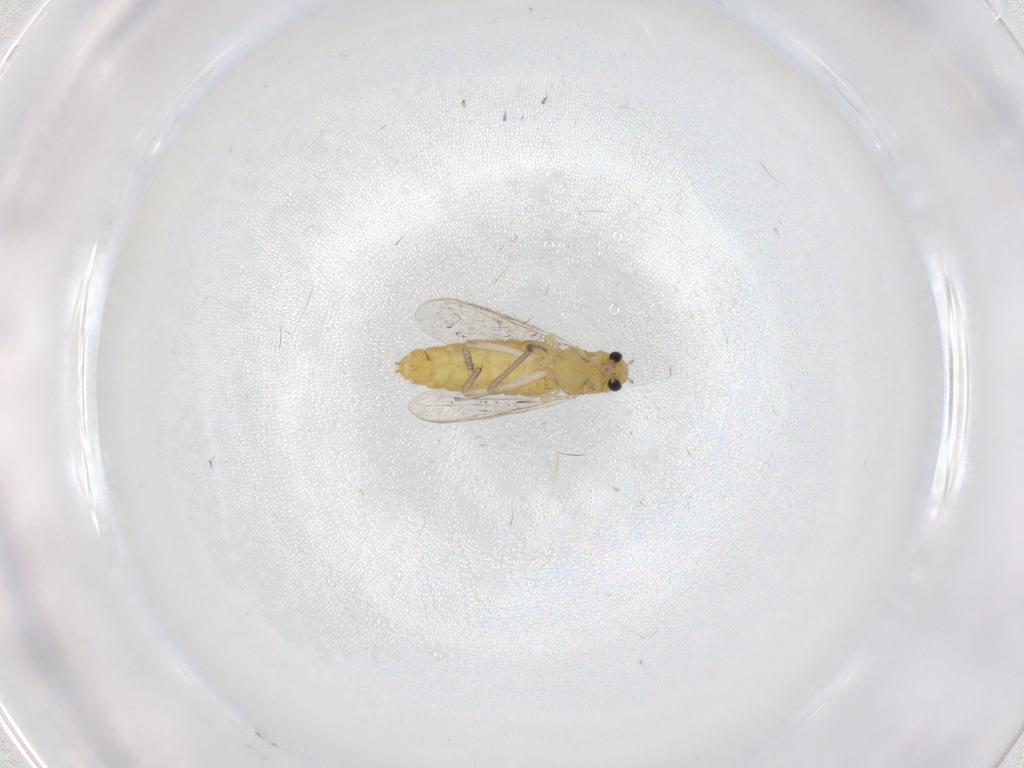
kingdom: Animalia
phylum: Arthropoda
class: Insecta
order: Diptera
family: Chironomidae
